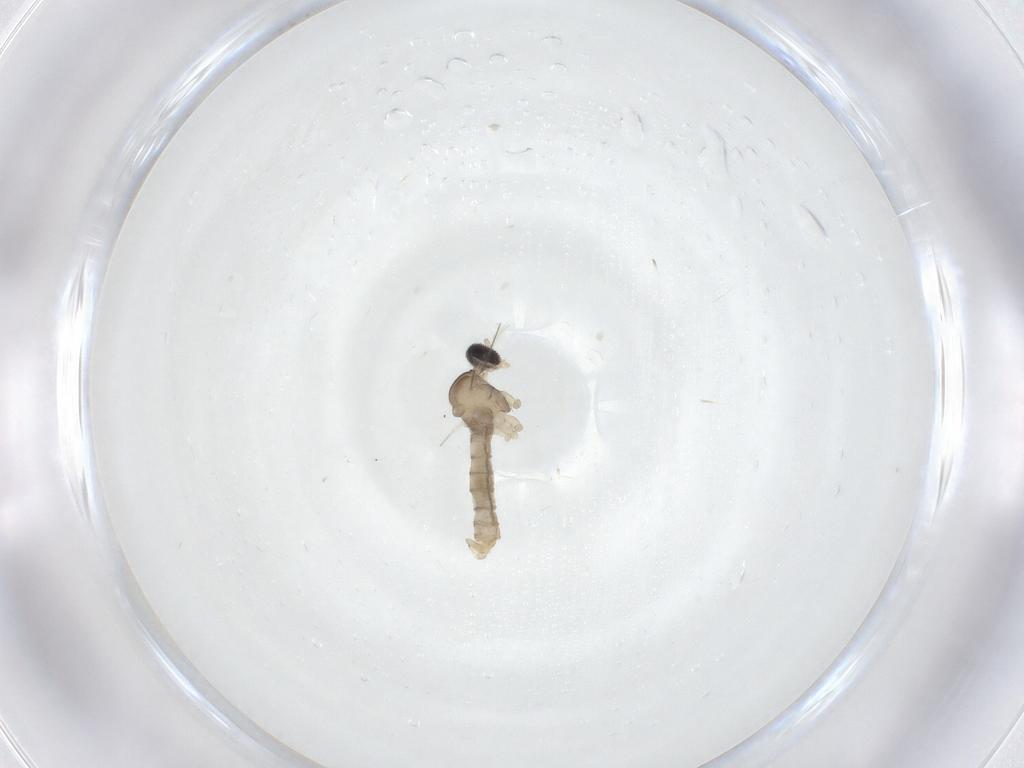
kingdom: Animalia
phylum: Arthropoda
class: Insecta
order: Diptera
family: Cecidomyiidae
